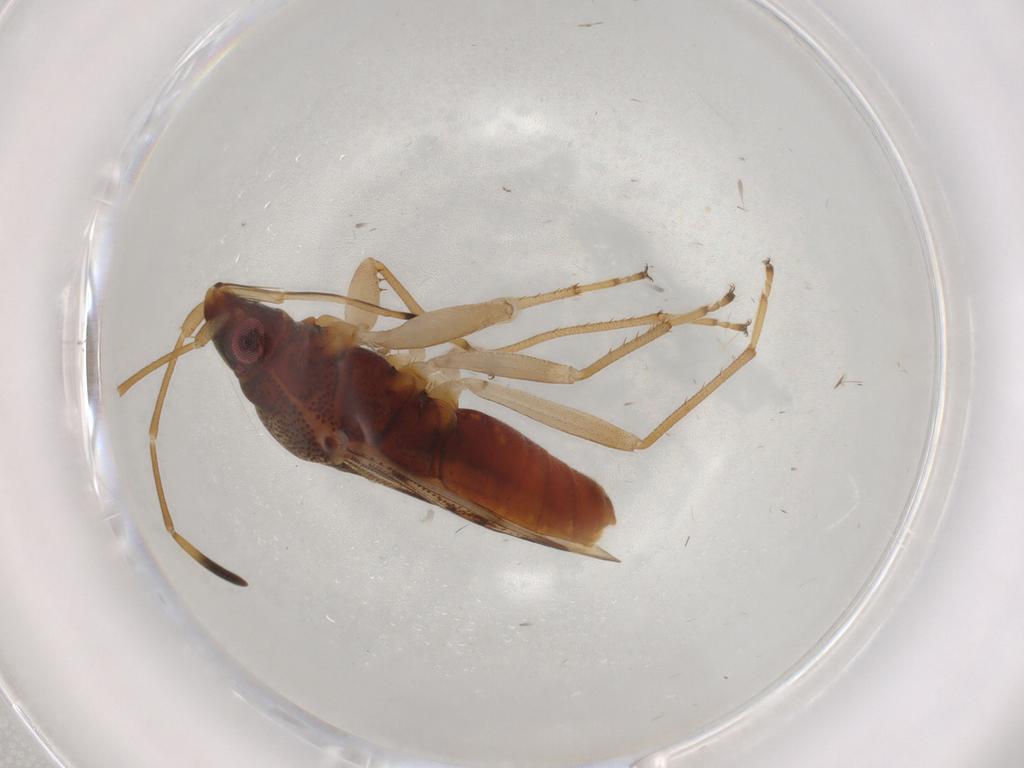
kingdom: Animalia
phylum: Arthropoda
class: Insecta
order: Hemiptera
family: Rhyparochromidae
